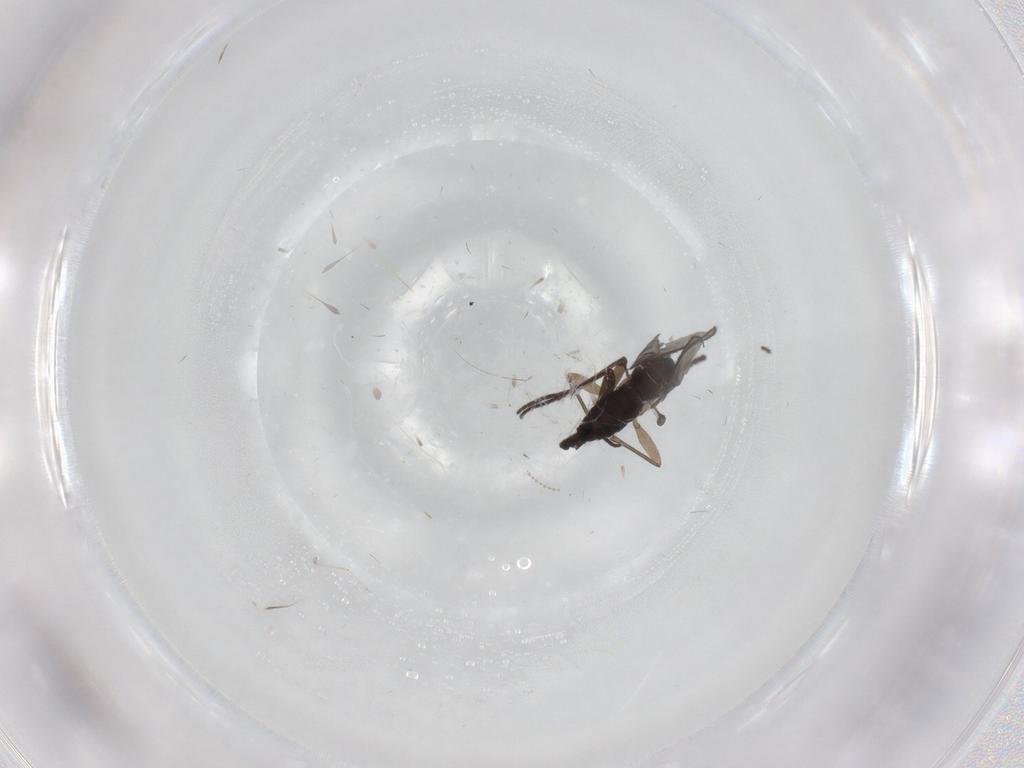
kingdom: Animalia
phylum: Arthropoda
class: Insecta
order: Diptera
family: Sciaridae
